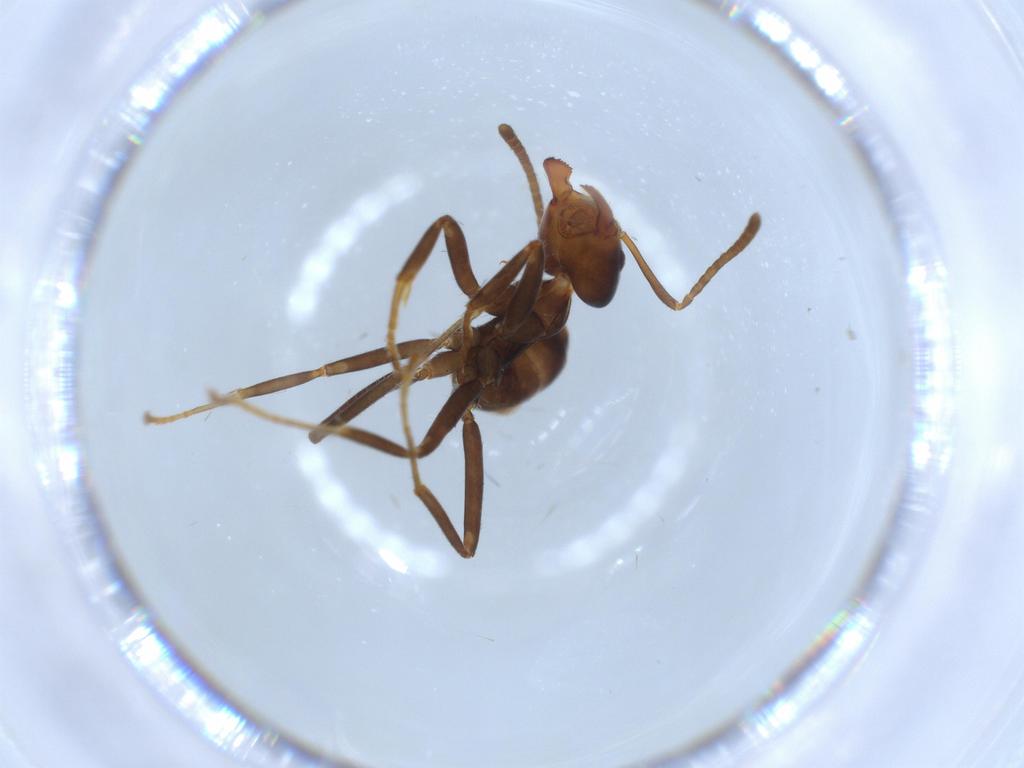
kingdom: Animalia
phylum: Arthropoda
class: Insecta
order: Hymenoptera
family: Formicidae
